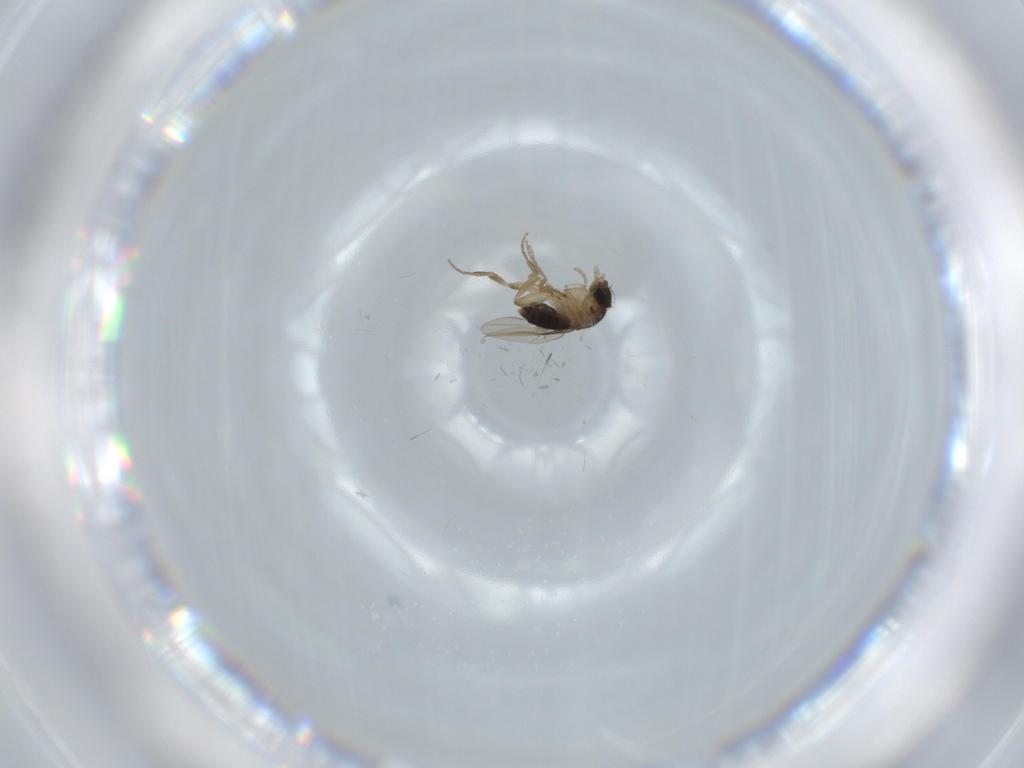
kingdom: Animalia
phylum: Arthropoda
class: Insecta
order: Diptera
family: Phoridae
